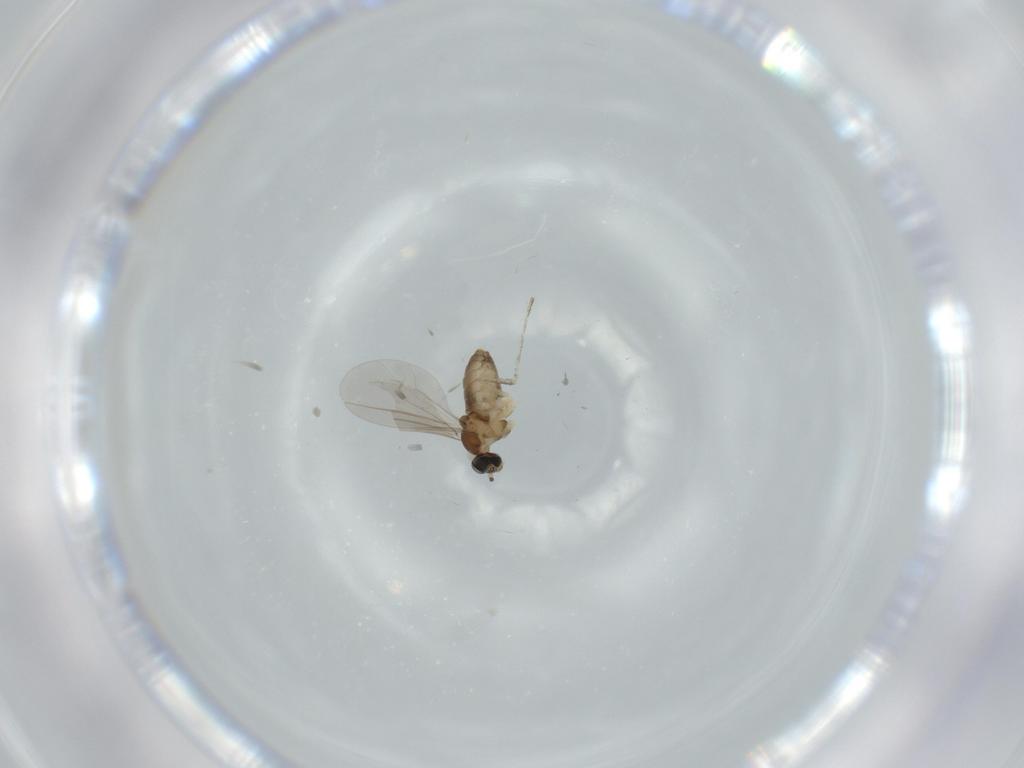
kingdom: Animalia
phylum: Arthropoda
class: Insecta
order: Diptera
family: Cecidomyiidae
